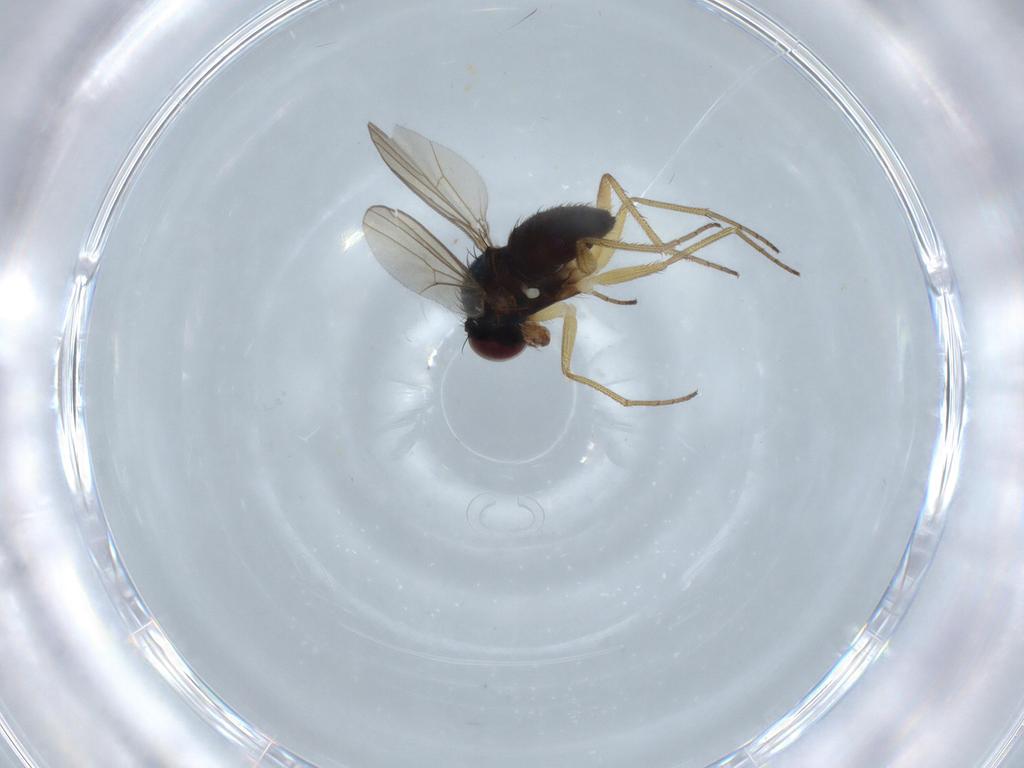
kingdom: Animalia
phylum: Arthropoda
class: Insecta
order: Diptera
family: Dolichopodidae
